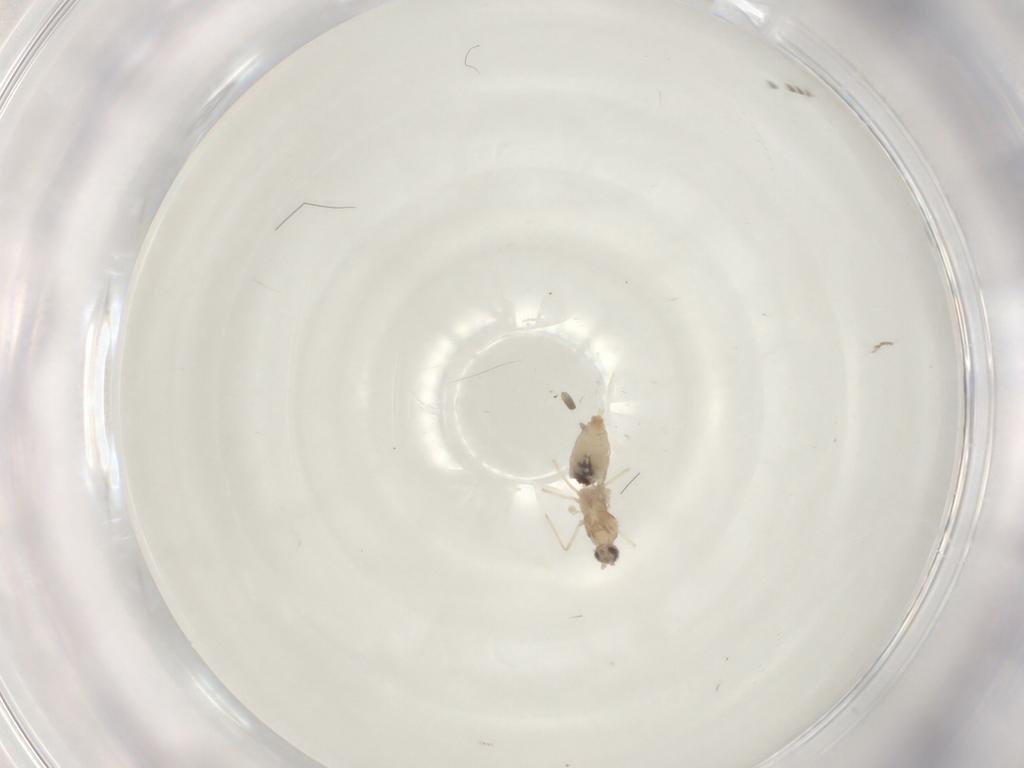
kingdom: Animalia
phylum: Arthropoda
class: Insecta
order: Diptera
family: Cecidomyiidae
